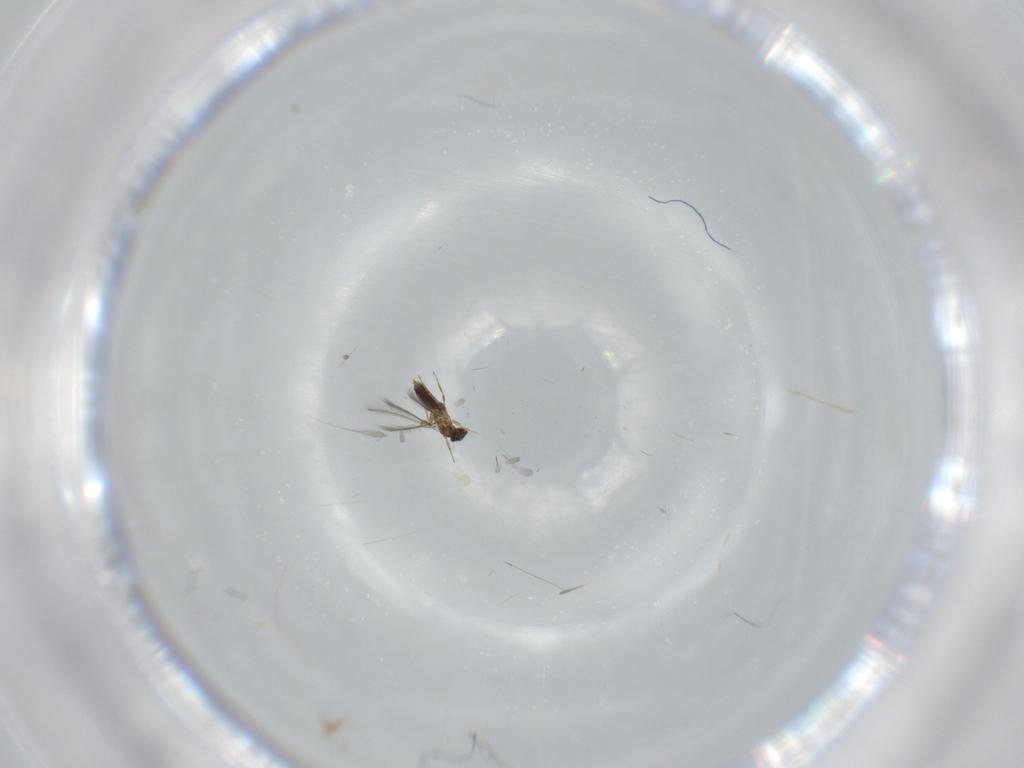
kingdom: Animalia
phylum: Arthropoda
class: Insecta
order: Hymenoptera
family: Mymaridae
